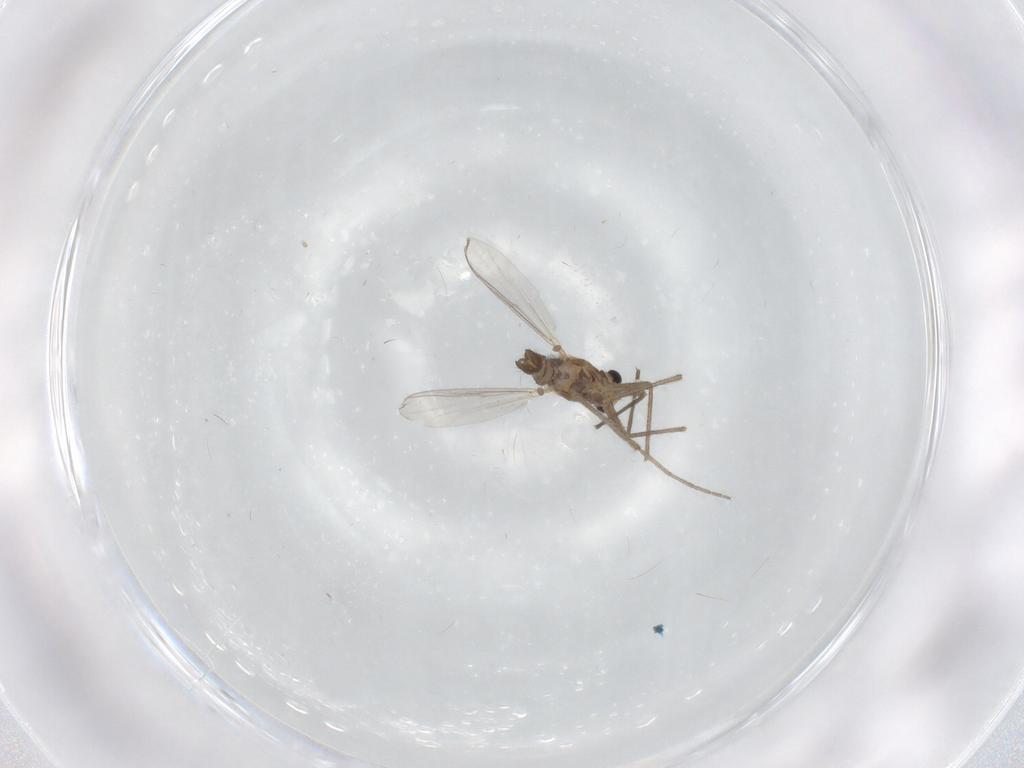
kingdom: Animalia
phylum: Arthropoda
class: Insecta
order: Diptera
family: Chironomidae
